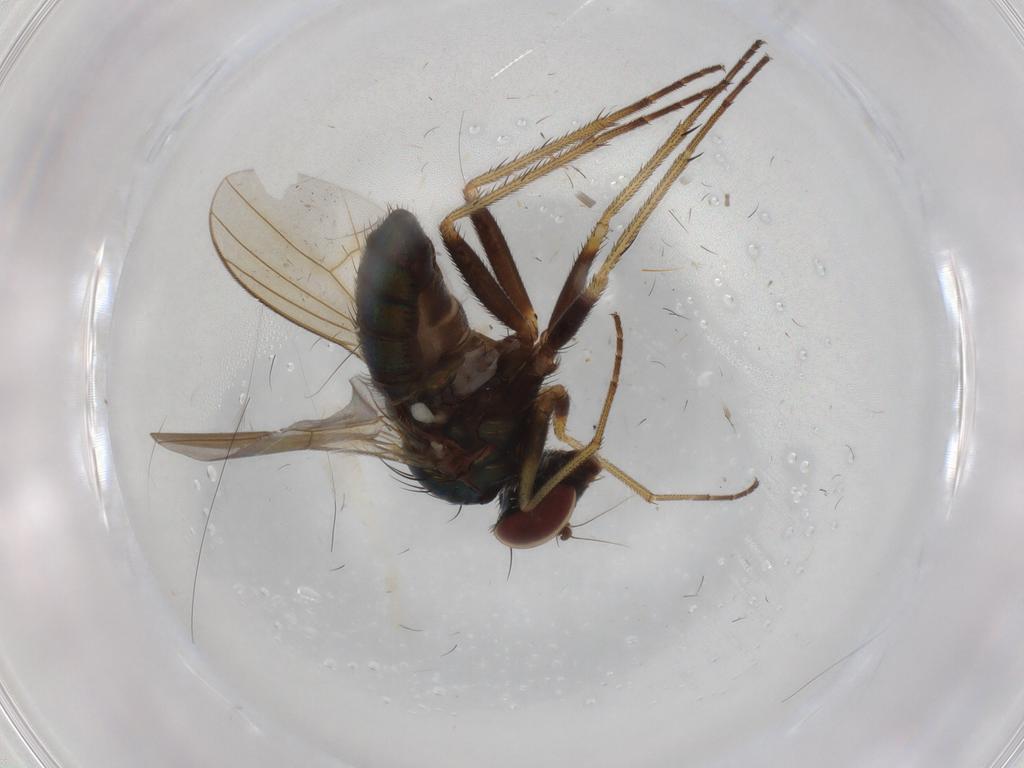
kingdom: Animalia
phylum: Arthropoda
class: Insecta
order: Diptera
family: Dolichopodidae
